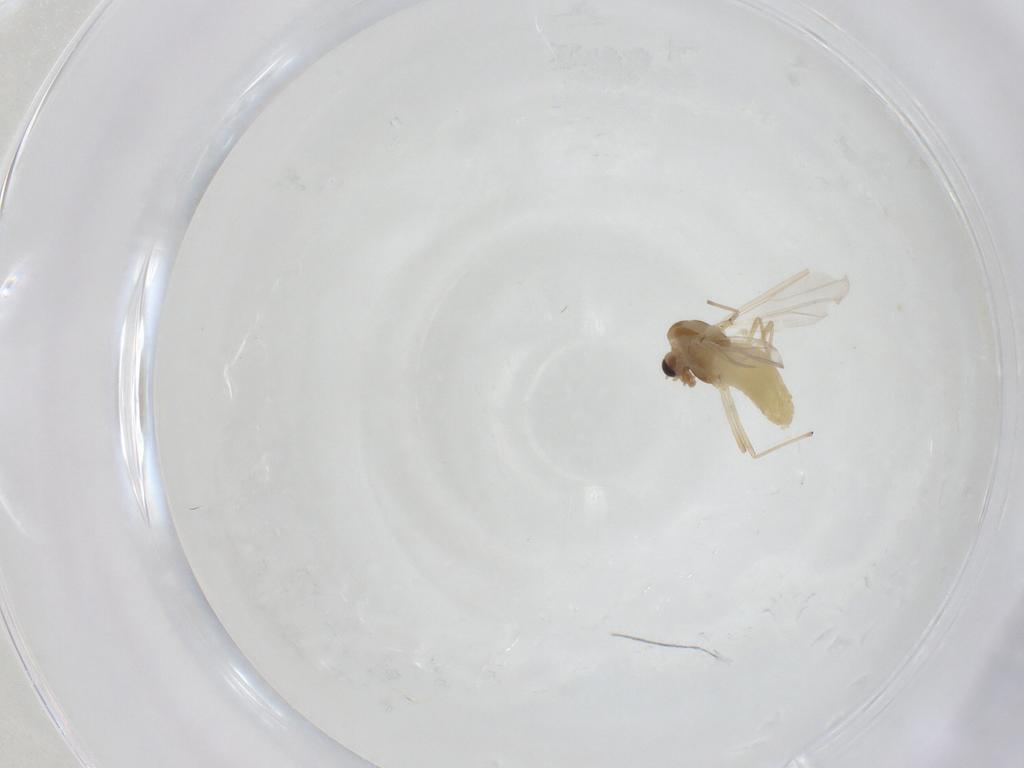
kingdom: Animalia
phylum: Arthropoda
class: Insecta
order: Diptera
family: Chironomidae
